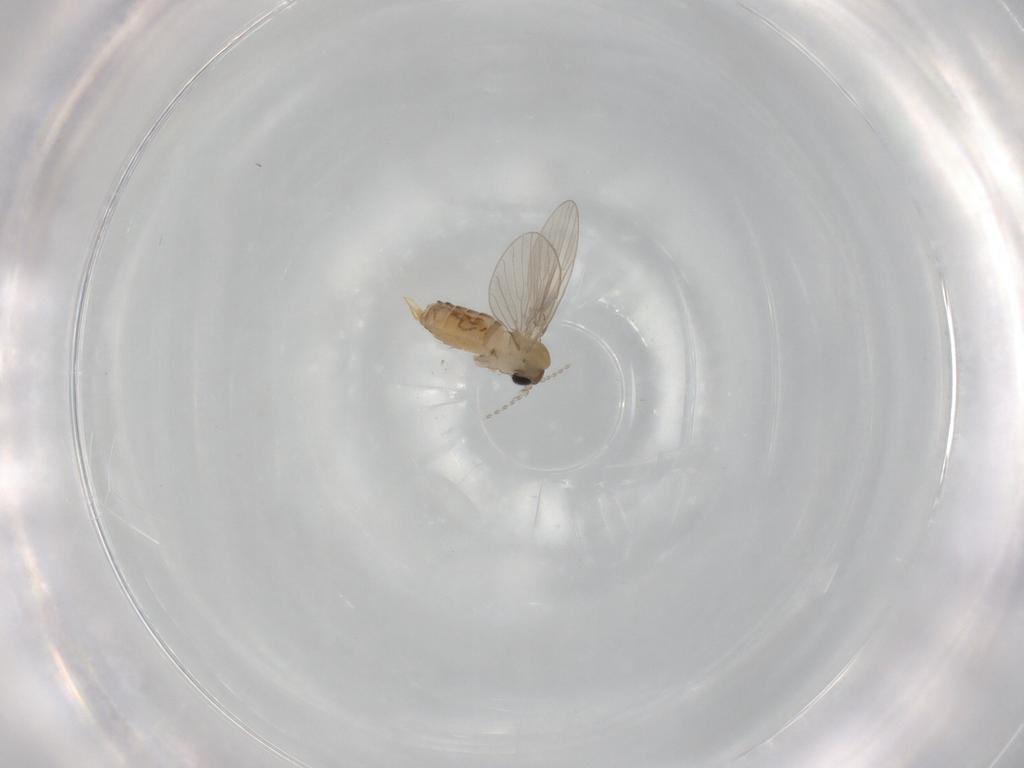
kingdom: Animalia
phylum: Arthropoda
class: Insecta
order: Diptera
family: Psychodidae
